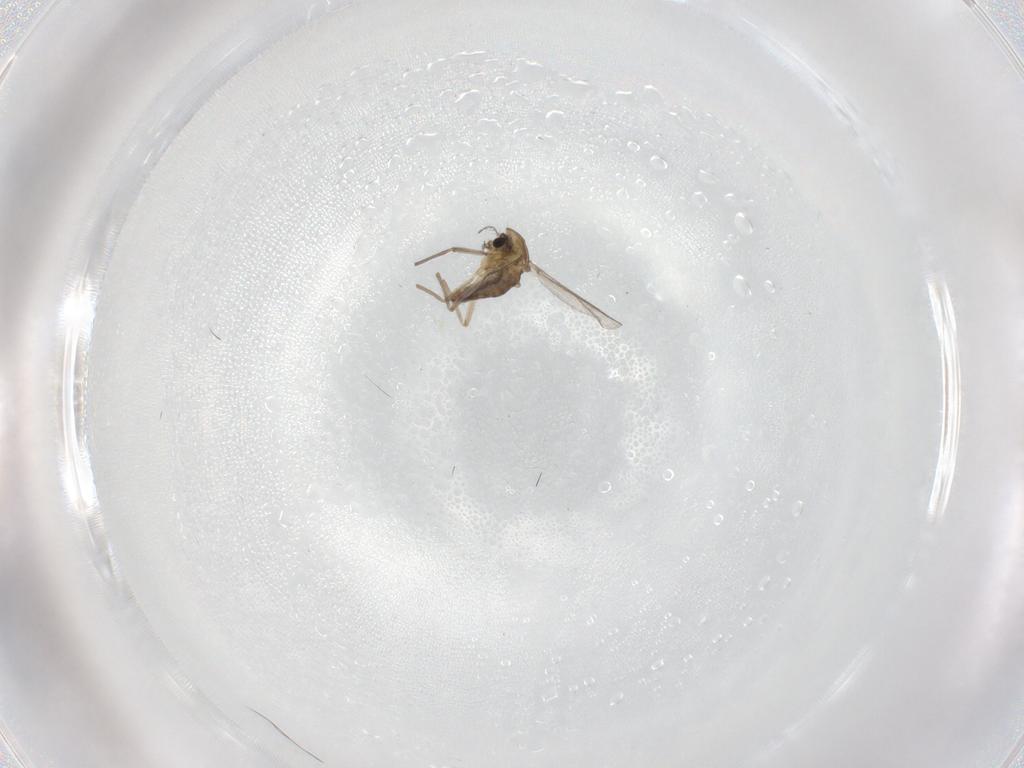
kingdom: Animalia
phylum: Arthropoda
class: Insecta
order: Diptera
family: Chironomidae
